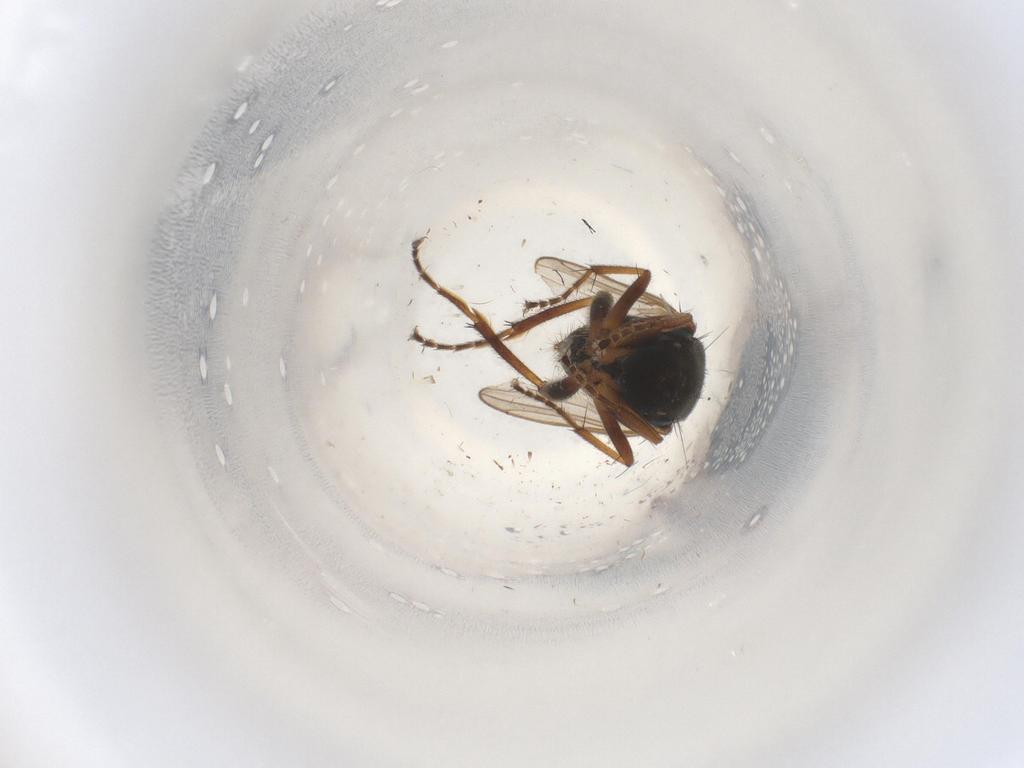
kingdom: Animalia
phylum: Arthropoda
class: Insecta
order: Diptera
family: Hybotidae
